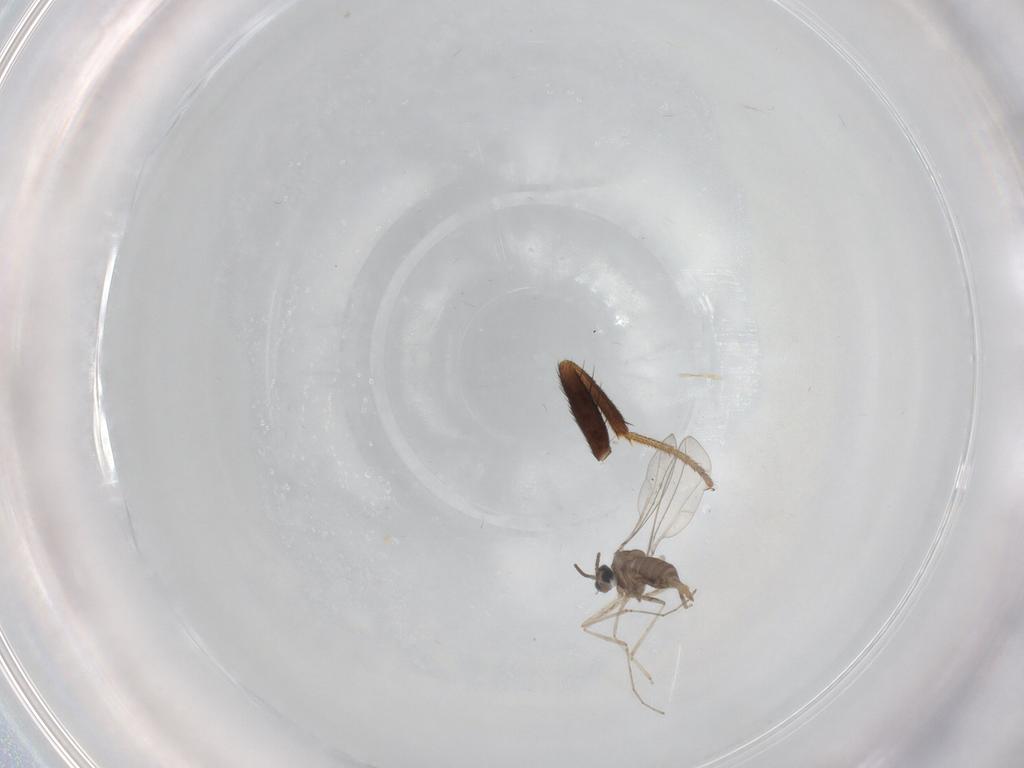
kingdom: Animalia
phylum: Arthropoda
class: Insecta
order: Diptera
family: Cecidomyiidae
